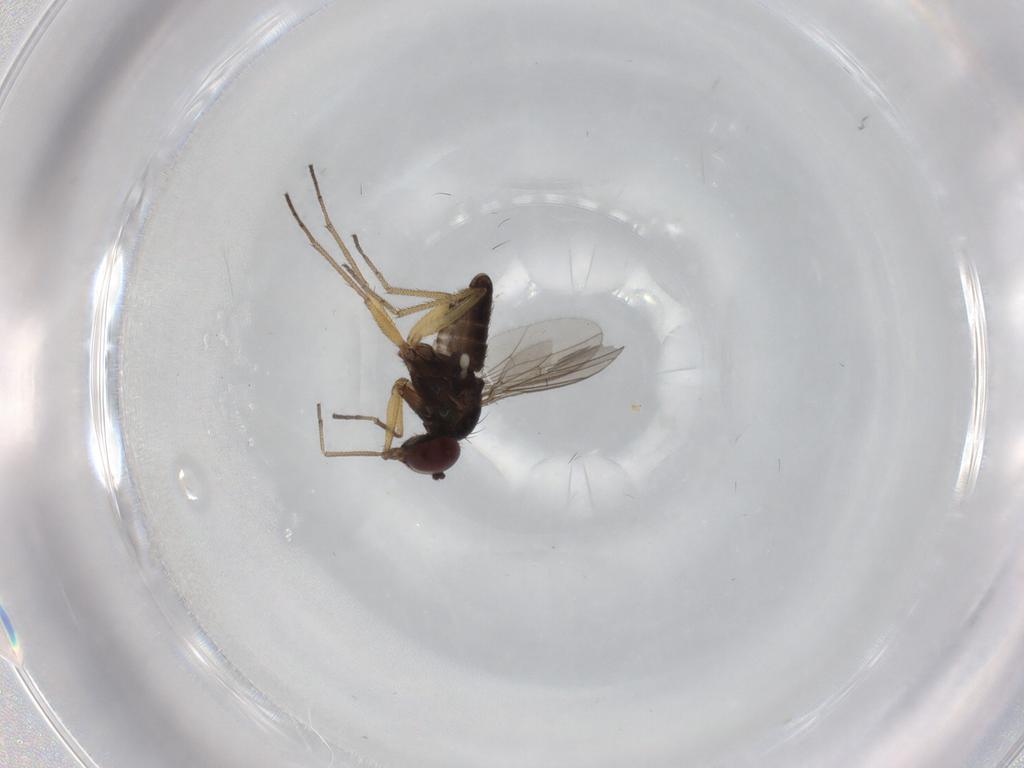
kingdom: Animalia
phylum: Arthropoda
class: Insecta
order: Diptera
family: Dolichopodidae
